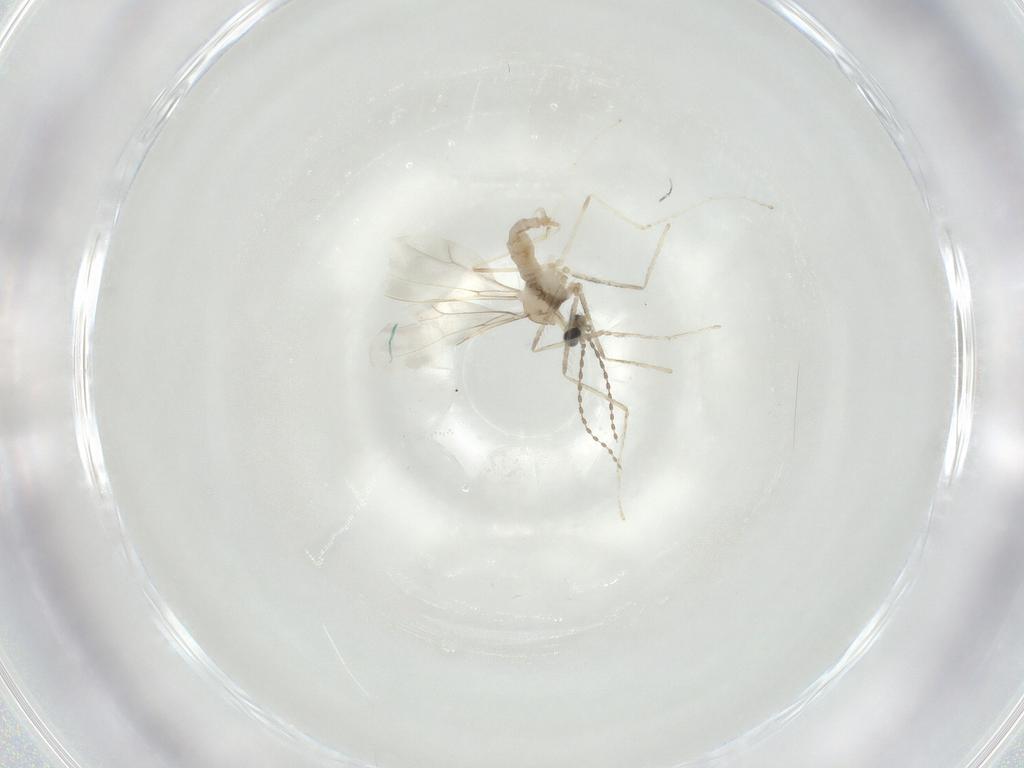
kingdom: Animalia
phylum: Arthropoda
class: Insecta
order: Diptera
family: Cecidomyiidae
